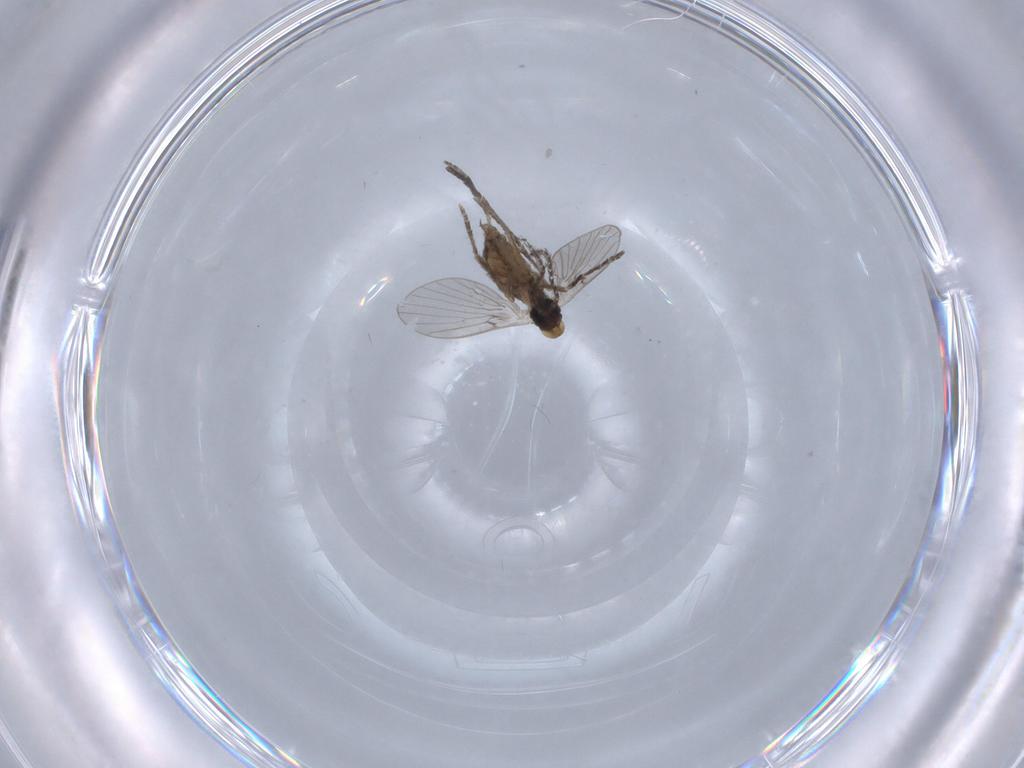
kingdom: Animalia
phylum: Arthropoda
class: Insecta
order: Diptera
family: Psychodidae
